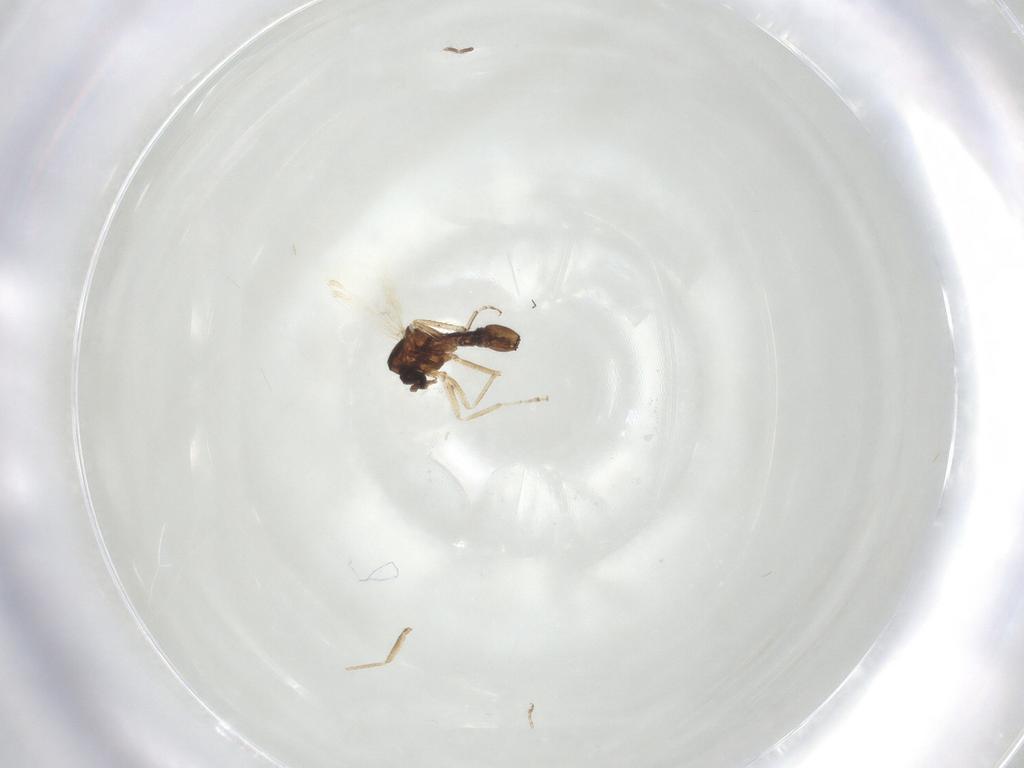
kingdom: Animalia
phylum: Arthropoda
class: Insecta
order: Diptera
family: Ceratopogonidae
